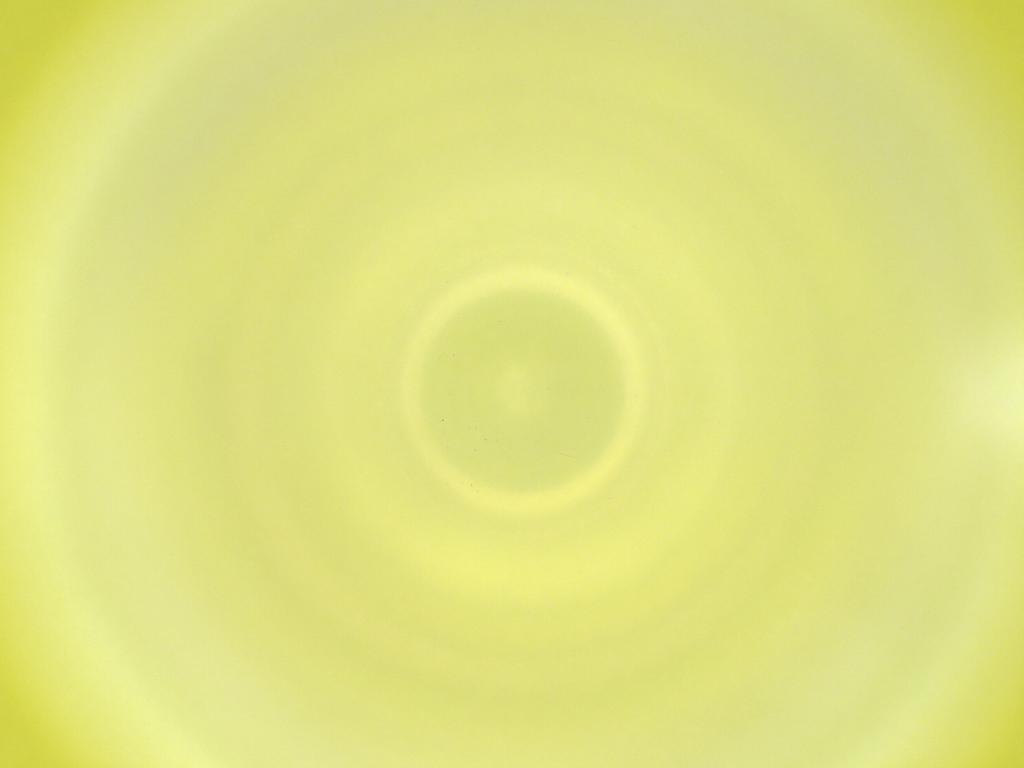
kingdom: Animalia
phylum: Arthropoda
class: Insecta
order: Diptera
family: Cecidomyiidae
